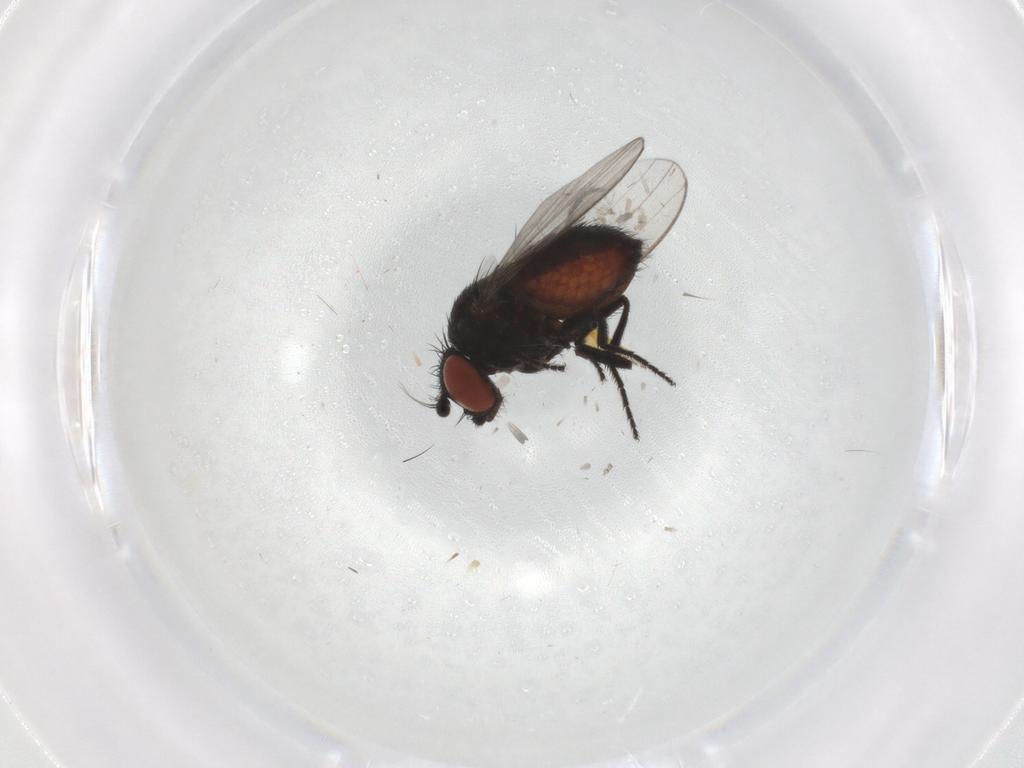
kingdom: Animalia
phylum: Arthropoda
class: Insecta
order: Diptera
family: Milichiidae
